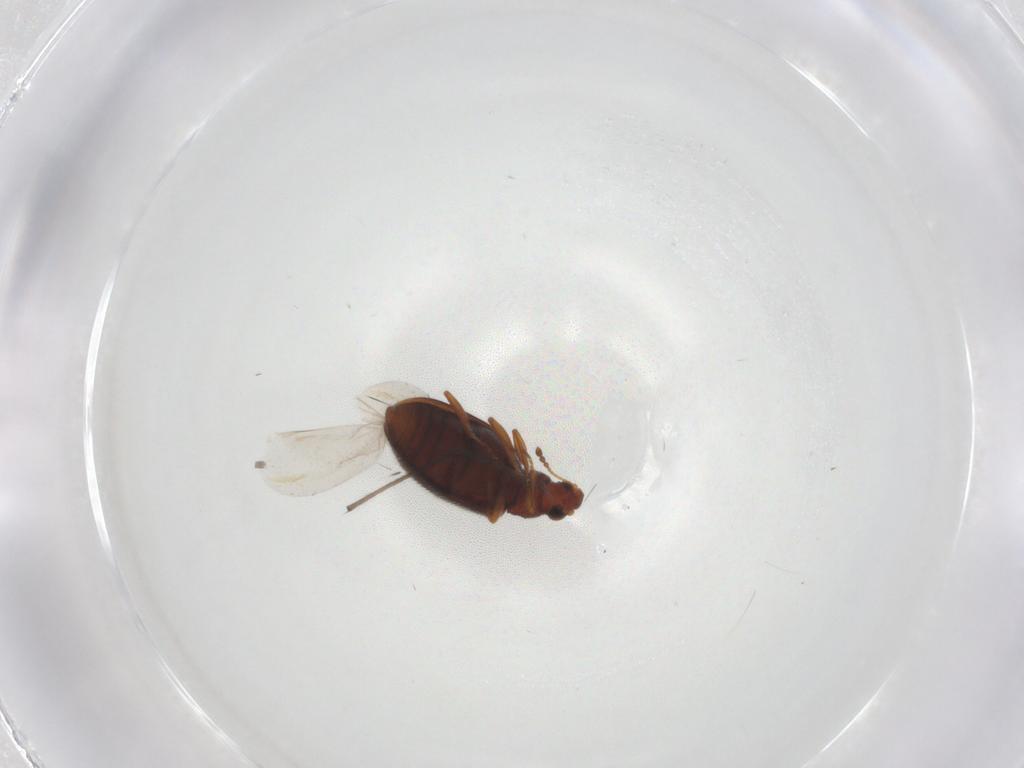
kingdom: Animalia
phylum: Arthropoda
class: Insecta
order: Coleoptera
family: Latridiidae
